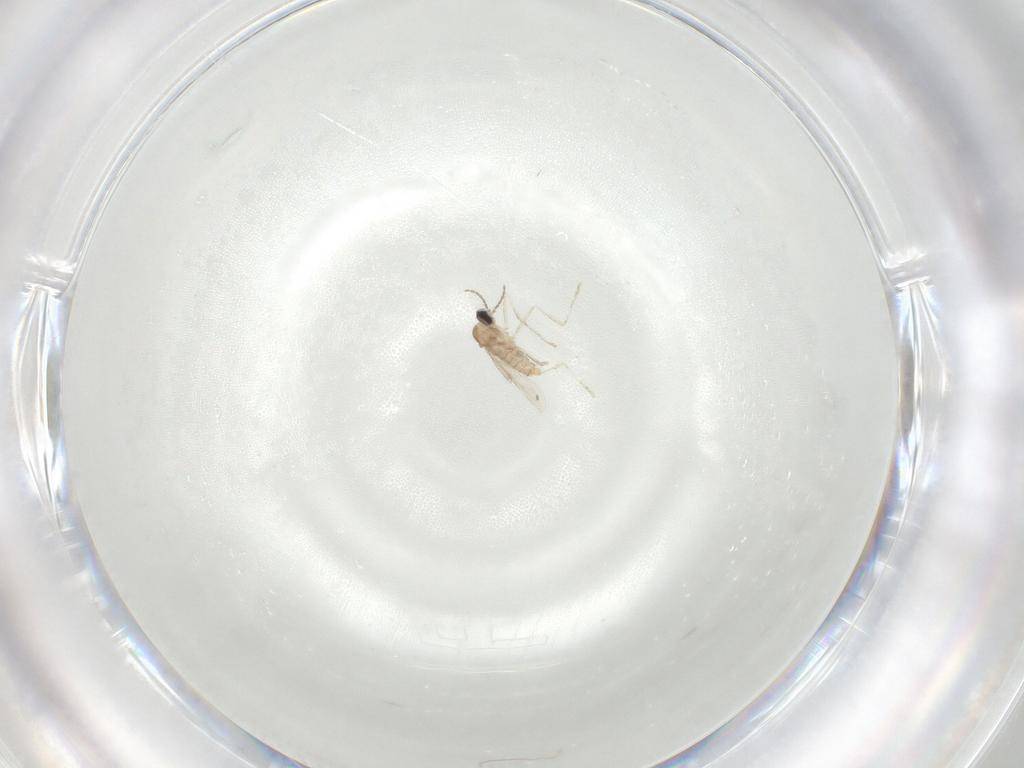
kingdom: Animalia
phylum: Arthropoda
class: Insecta
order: Diptera
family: Cecidomyiidae
